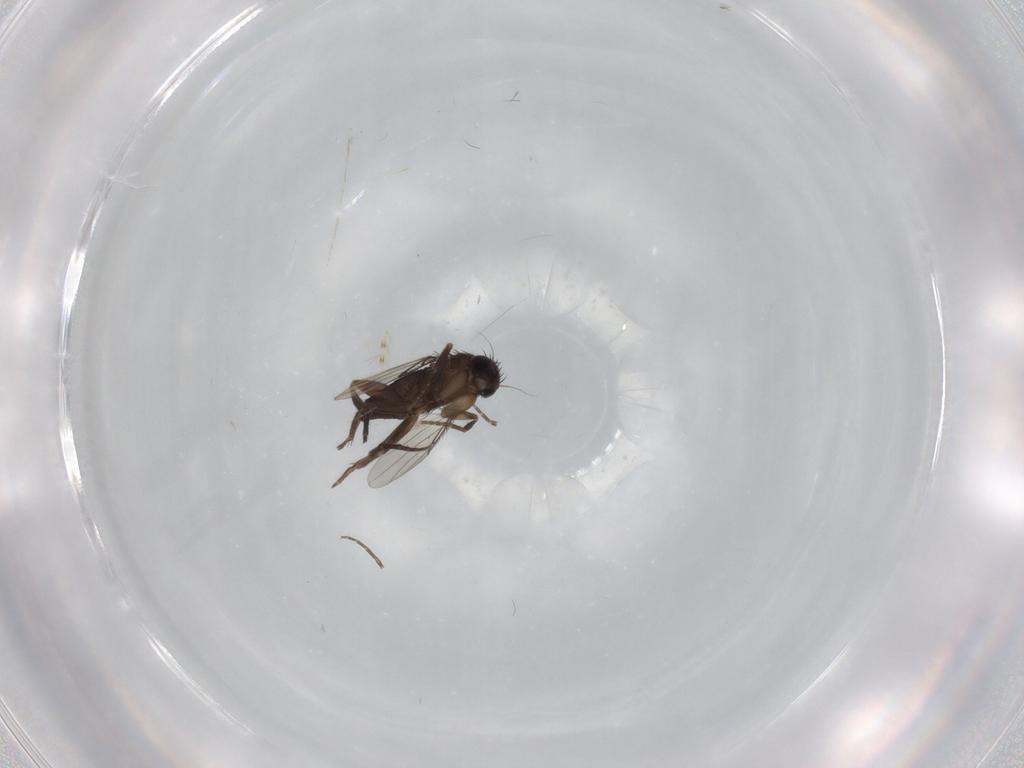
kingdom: Animalia
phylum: Arthropoda
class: Insecta
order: Diptera
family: Phoridae
